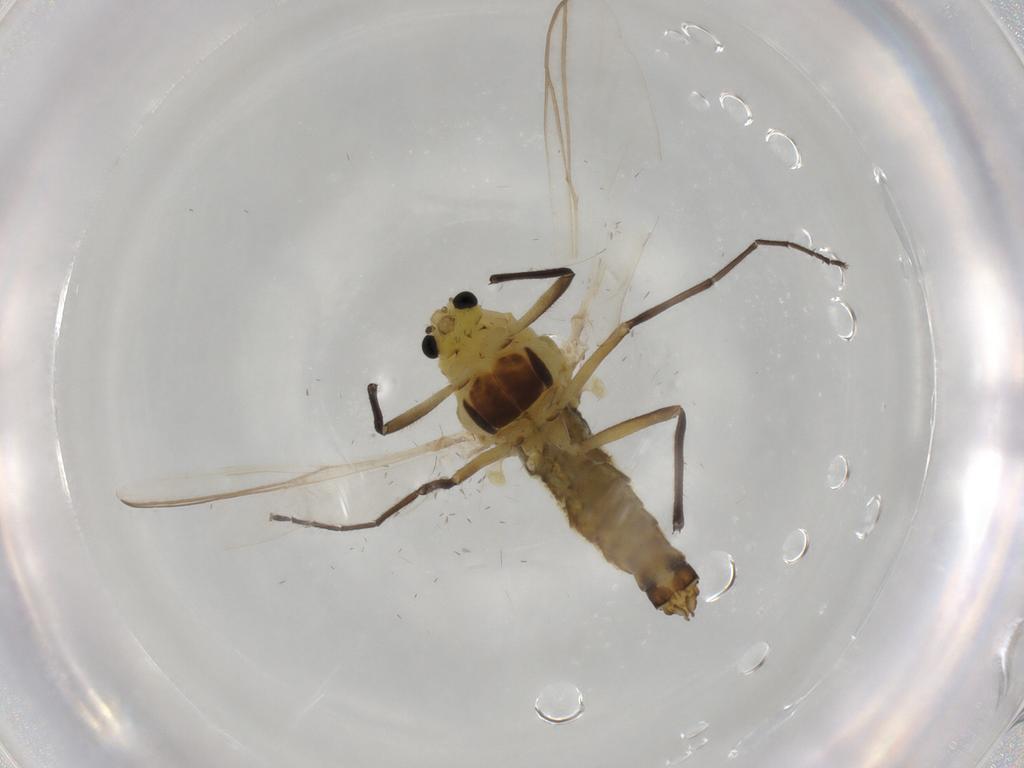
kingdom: Animalia
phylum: Arthropoda
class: Insecta
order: Diptera
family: Chironomidae
